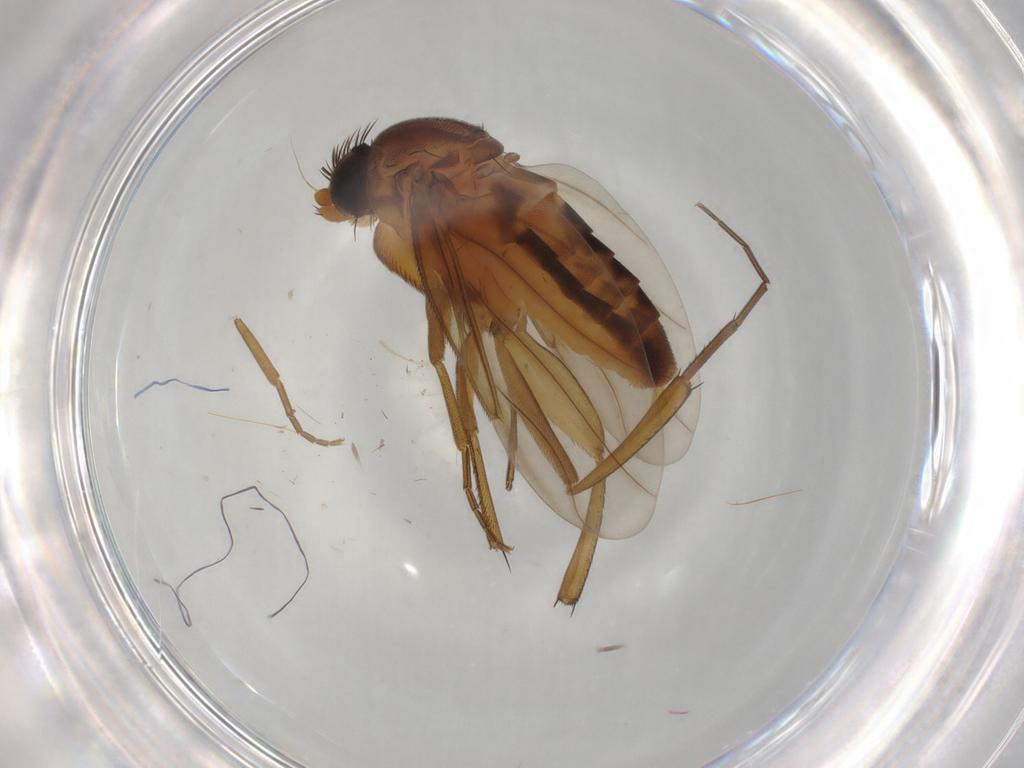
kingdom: Animalia
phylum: Arthropoda
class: Insecta
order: Diptera
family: Phoridae
